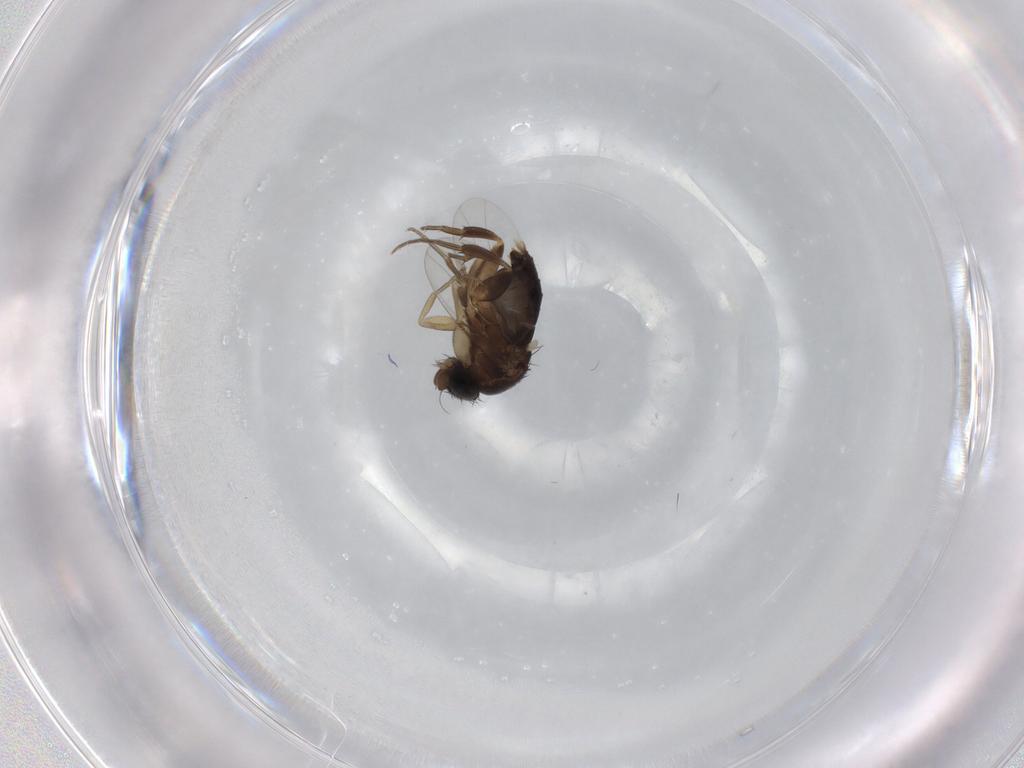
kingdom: Animalia
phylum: Arthropoda
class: Insecta
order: Diptera
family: Phoridae
